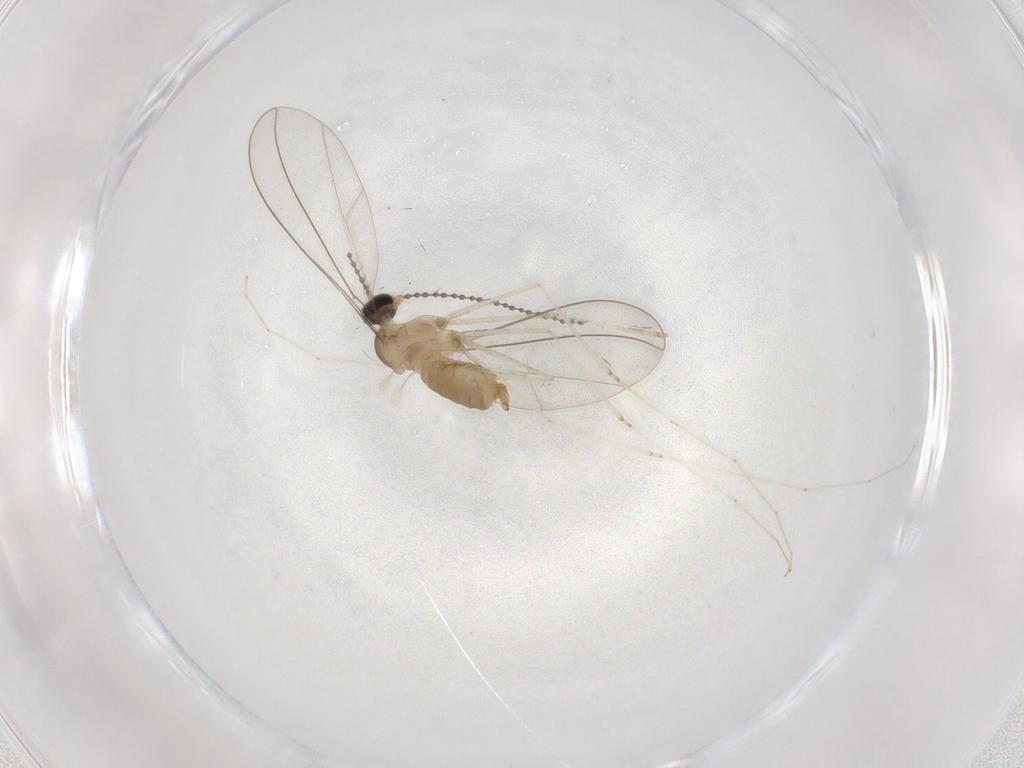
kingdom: Animalia
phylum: Arthropoda
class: Insecta
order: Diptera
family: Cecidomyiidae
